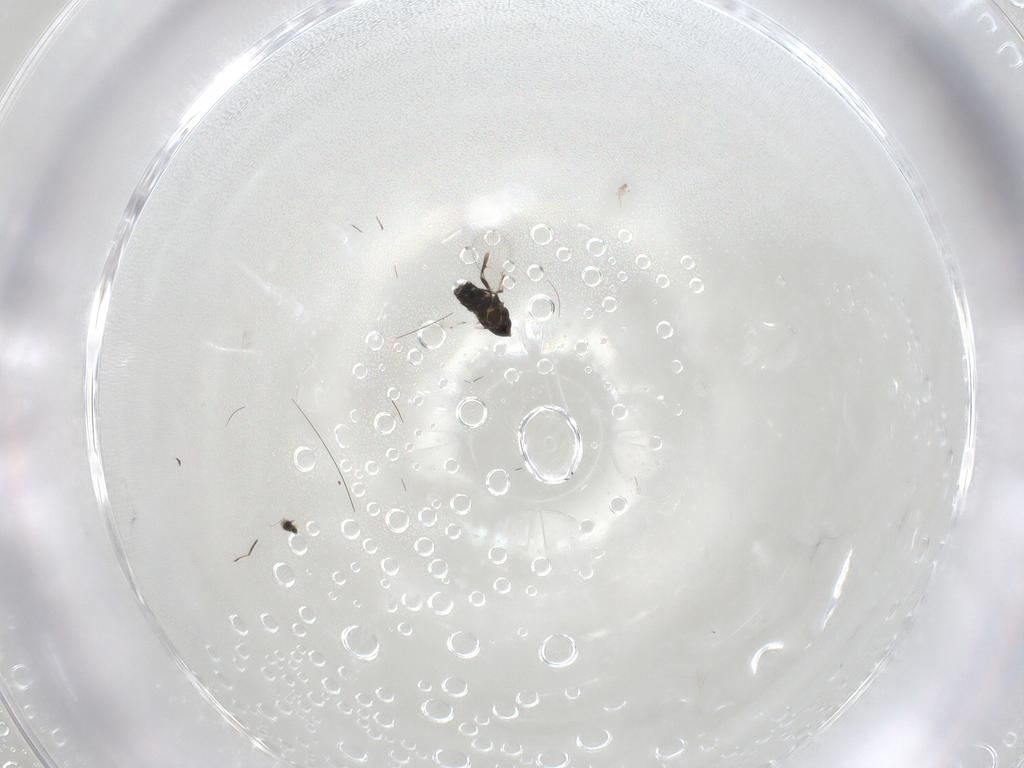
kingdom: Animalia
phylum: Arthropoda
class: Insecta
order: Hymenoptera
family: Trichogrammatidae
